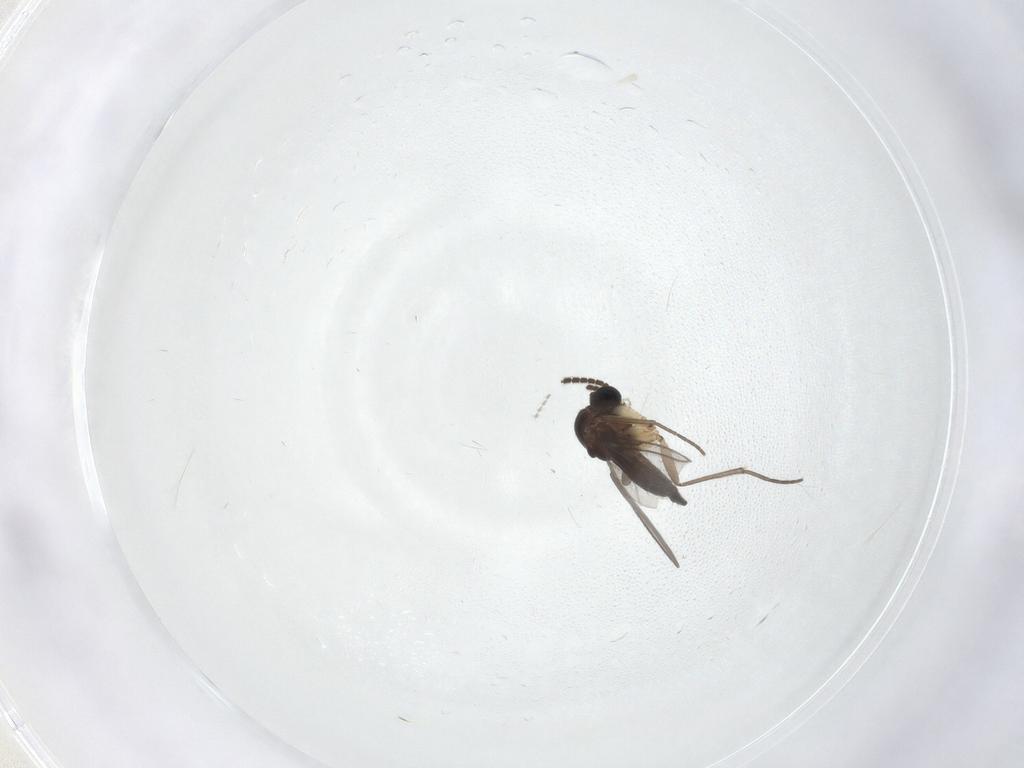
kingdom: Animalia
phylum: Arthropoda
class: Insecta
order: Diptera
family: Sciaridae
